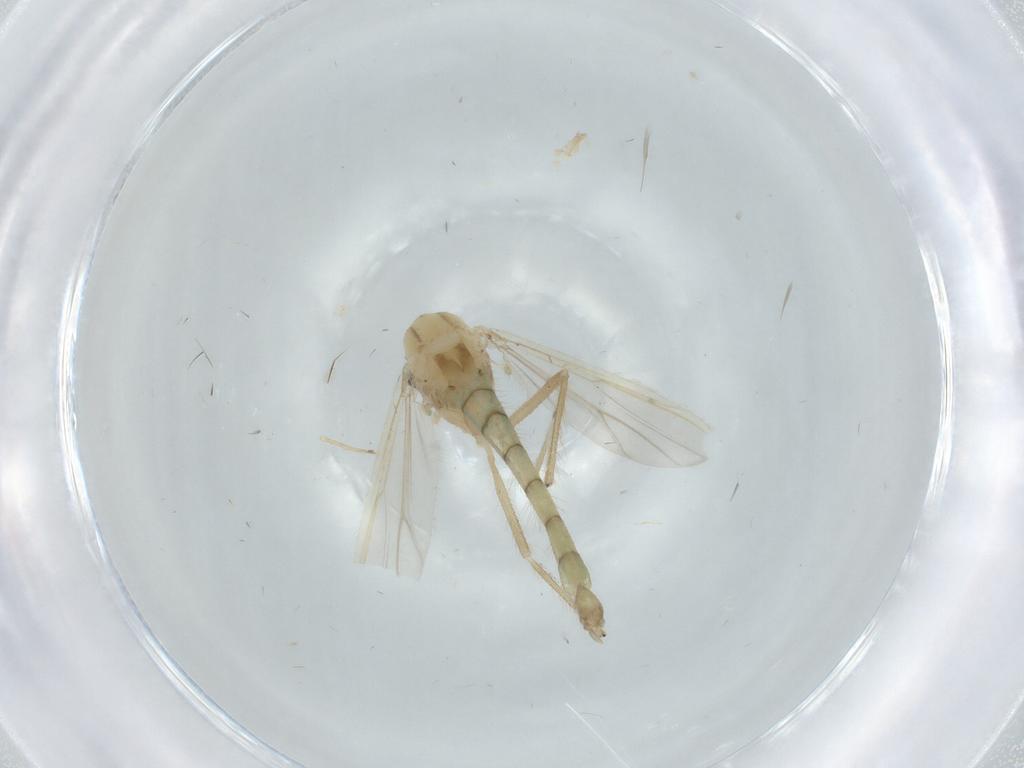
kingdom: Animalia
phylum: Arthropoda
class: Insecta
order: Diptera
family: Chironomidae
